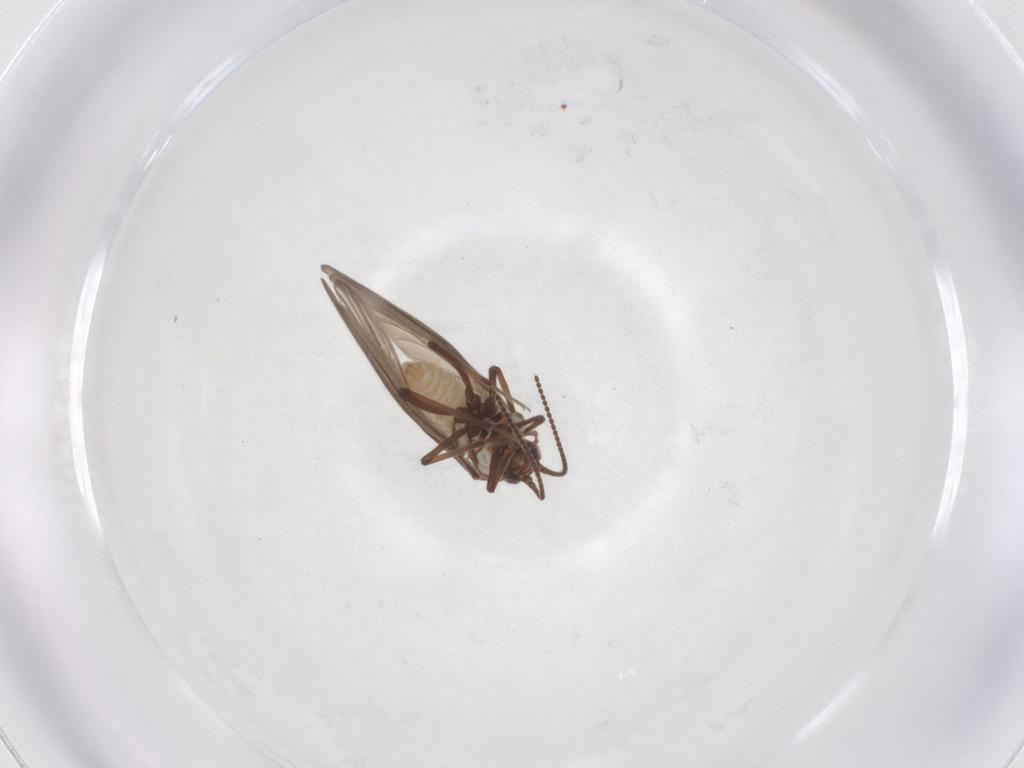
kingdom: Animalia
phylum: Arthropoda
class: Insecta
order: Neuroptera
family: Coniopterygidae
